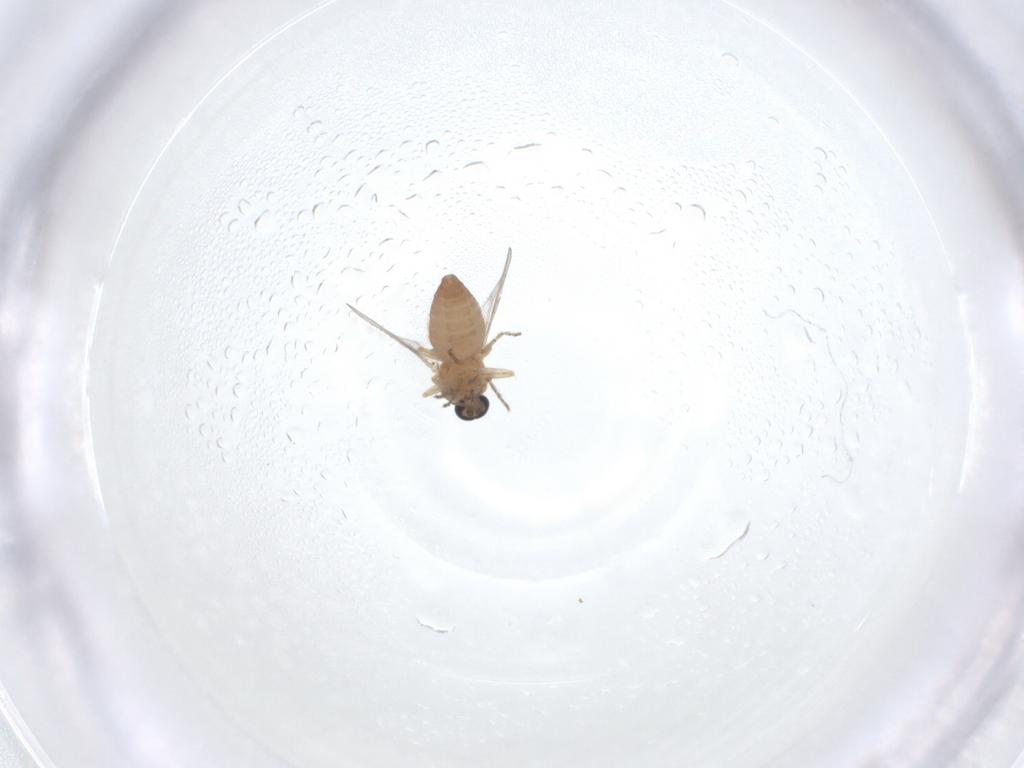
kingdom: Animalia
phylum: Arthropoda
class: Insecta
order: Diptera
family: Ceratopogonidae
